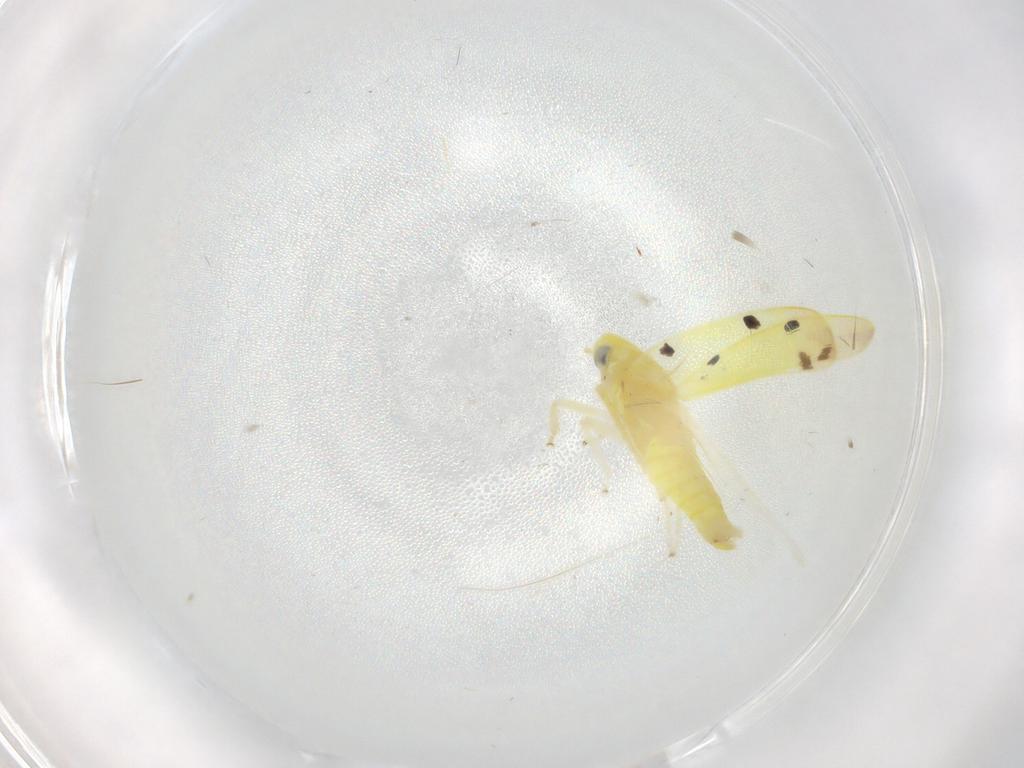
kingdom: Animalia
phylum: Arthropoda
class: Insecta
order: Hemiptera
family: Cicadellidae
